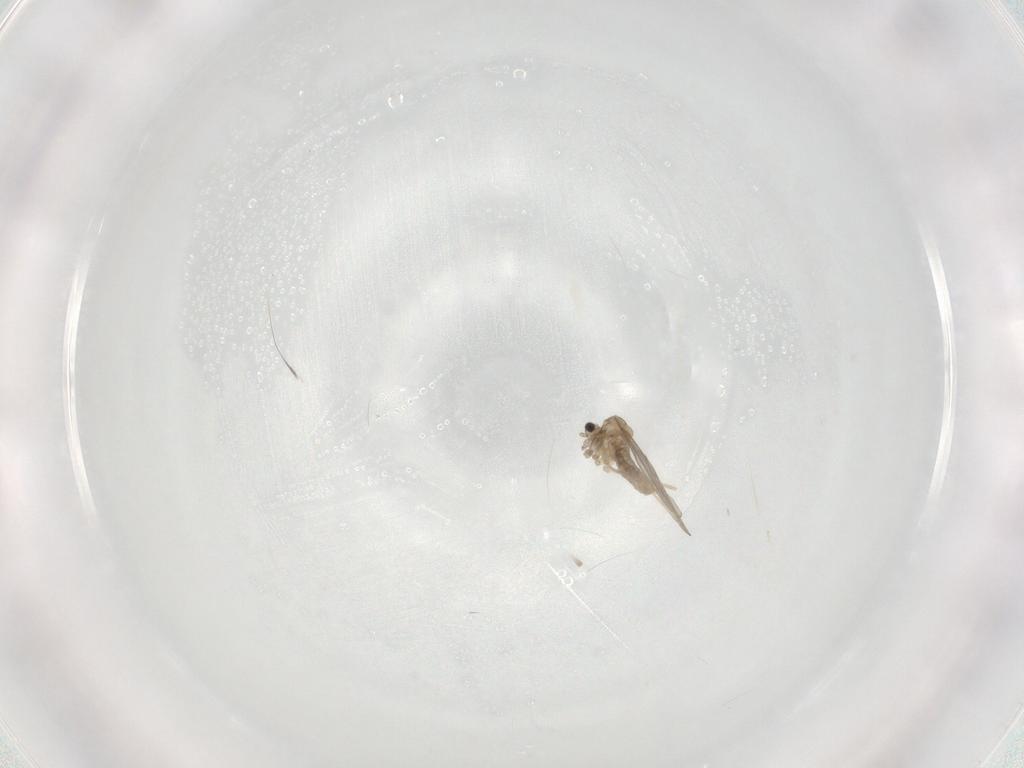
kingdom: Animalia
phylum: Arthropoda
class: Insecta
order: Diptera
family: Cecidomyiidae
